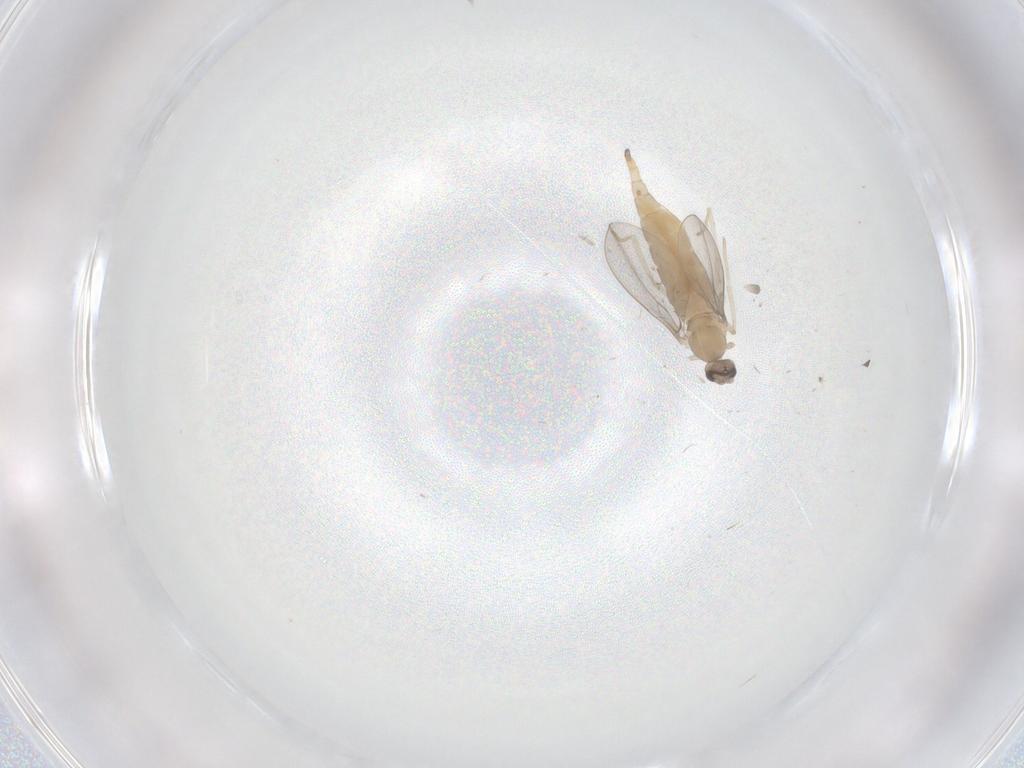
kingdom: Animalia
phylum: Arthropoda
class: Insecta
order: Diptera
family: Cecidomyiidae
